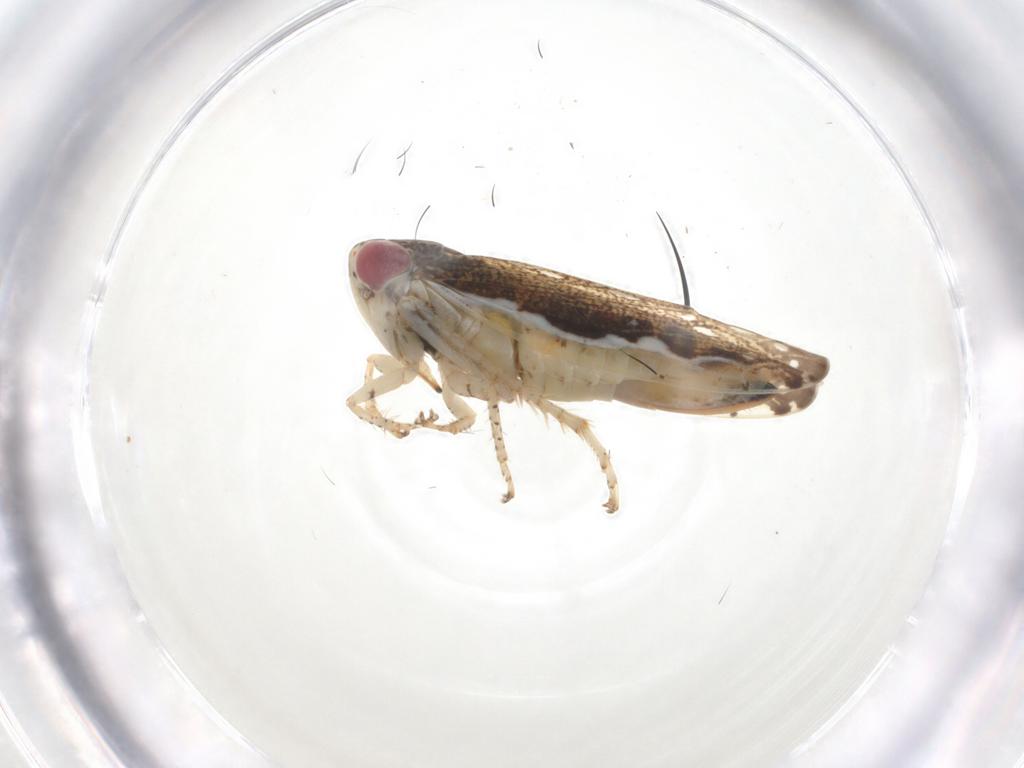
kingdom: Animalia
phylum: Arthropoda
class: Insecta
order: Hemiptera
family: Cicadellidae
